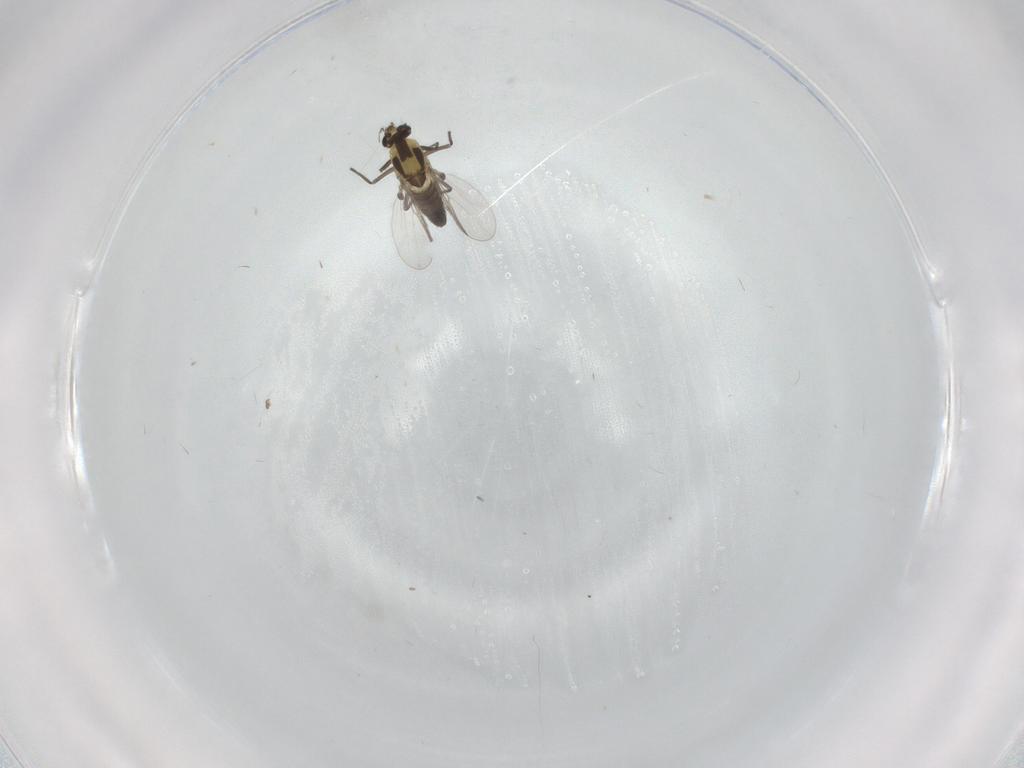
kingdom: Animalia
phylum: Arthropoda
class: Insecta
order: Diptera
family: Chironomidae
